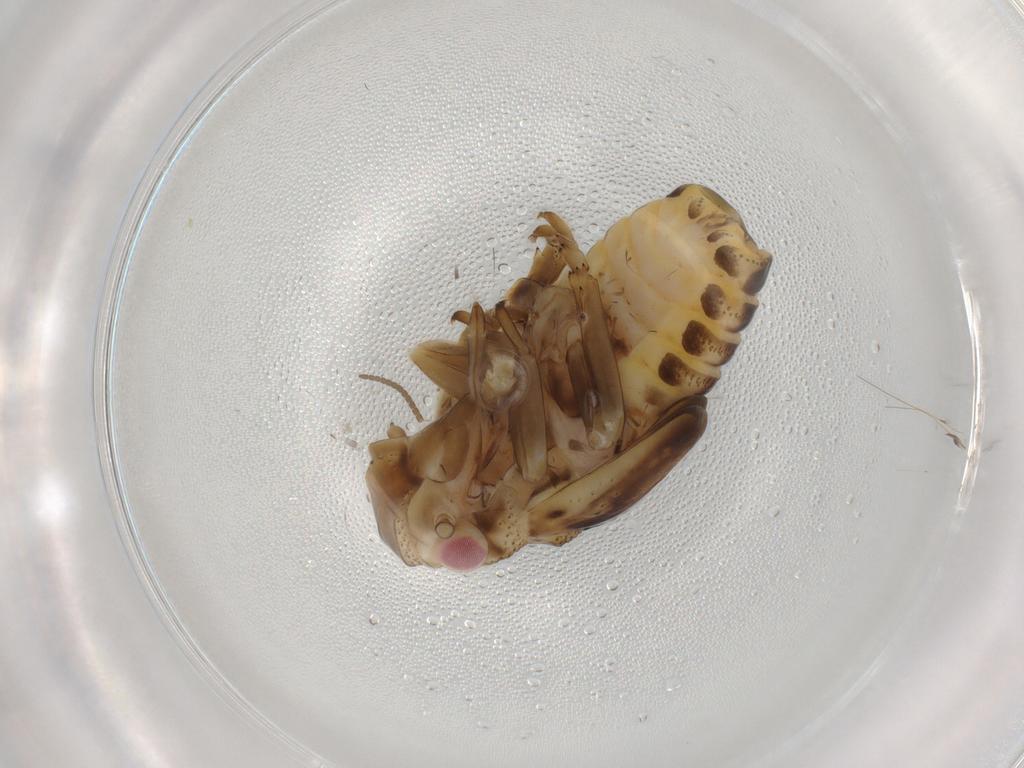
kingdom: Animalia
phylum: Arthropoda
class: Insecta
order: Hemiptera
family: Flatidae
